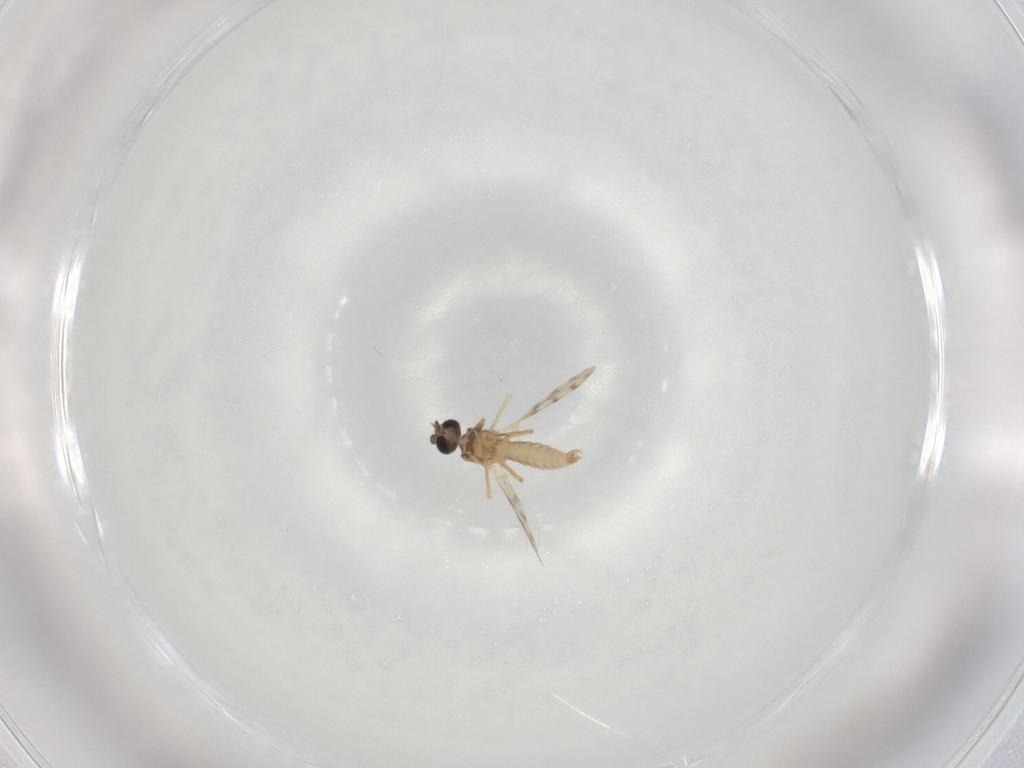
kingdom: Animalia
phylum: Arthropoda
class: Insecta
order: Diptera
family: Ceratopogonidae
